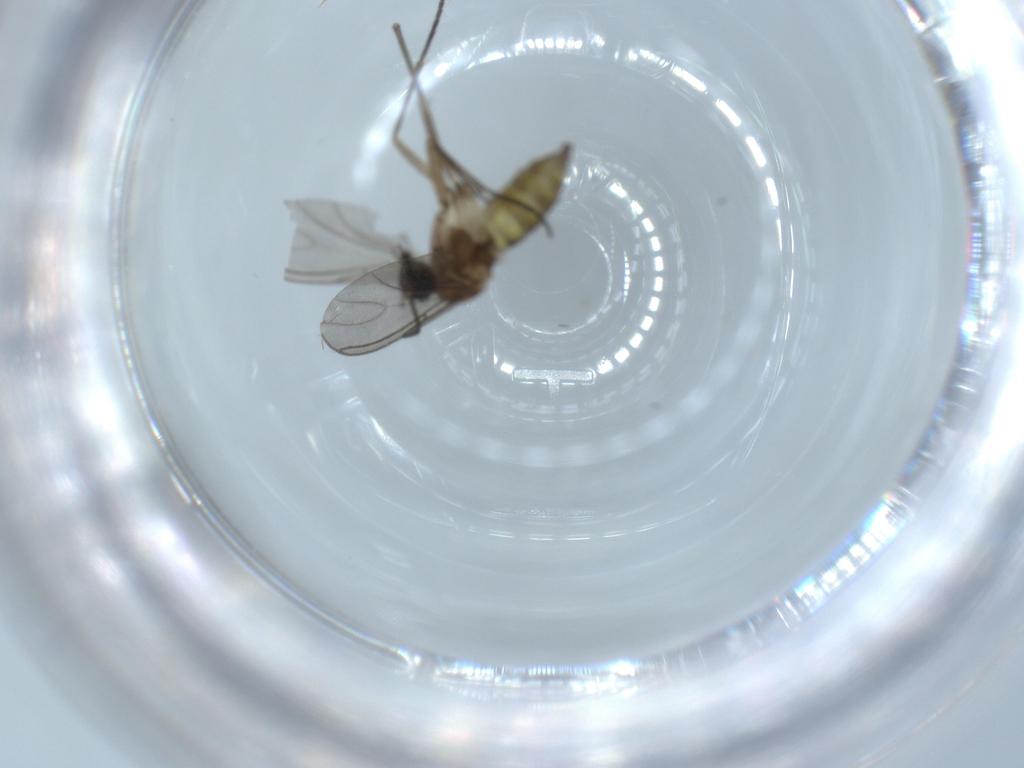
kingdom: Animalia
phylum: Arthropoda
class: Insecta
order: Diptera
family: Sciaridae
